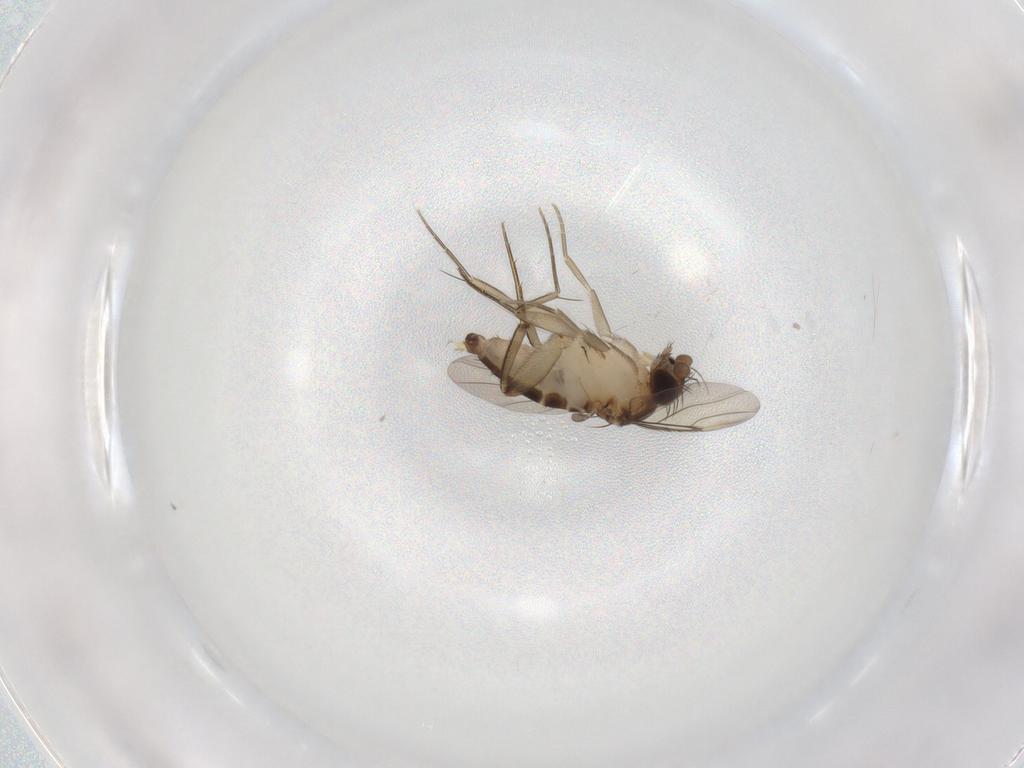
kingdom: Animalia
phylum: Arthropoda
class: Insecta
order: Diptera
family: Phoridae
